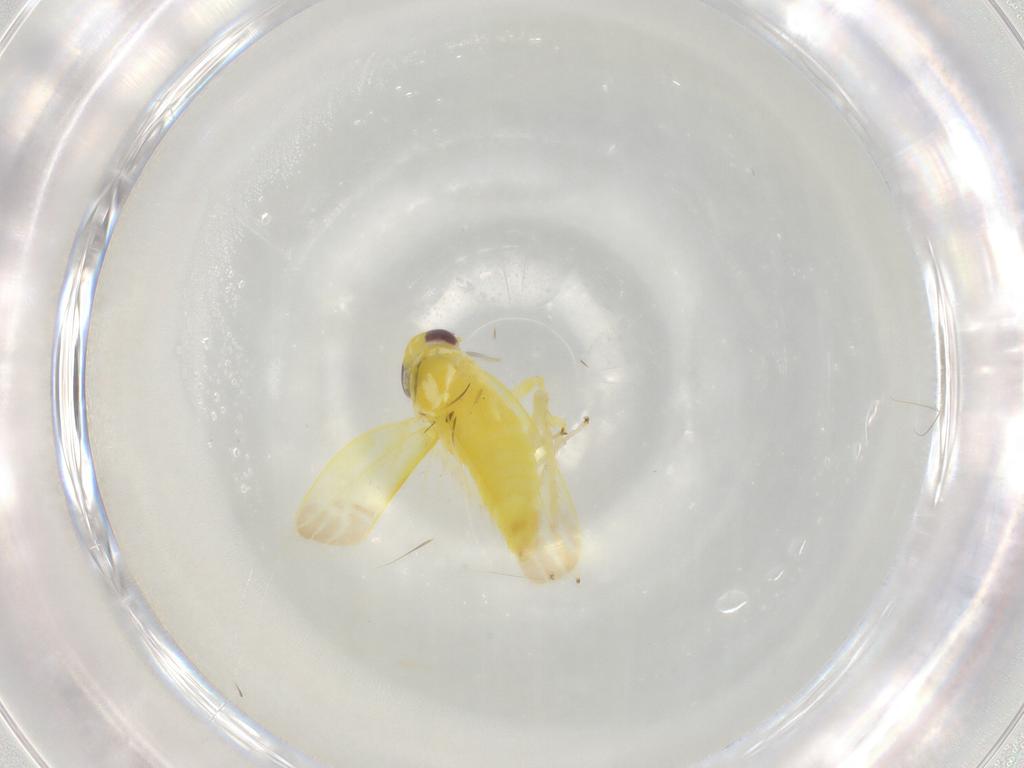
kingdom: Animalia
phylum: Arthropoda
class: Insecta
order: Hemiptera
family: Cicadellidae
